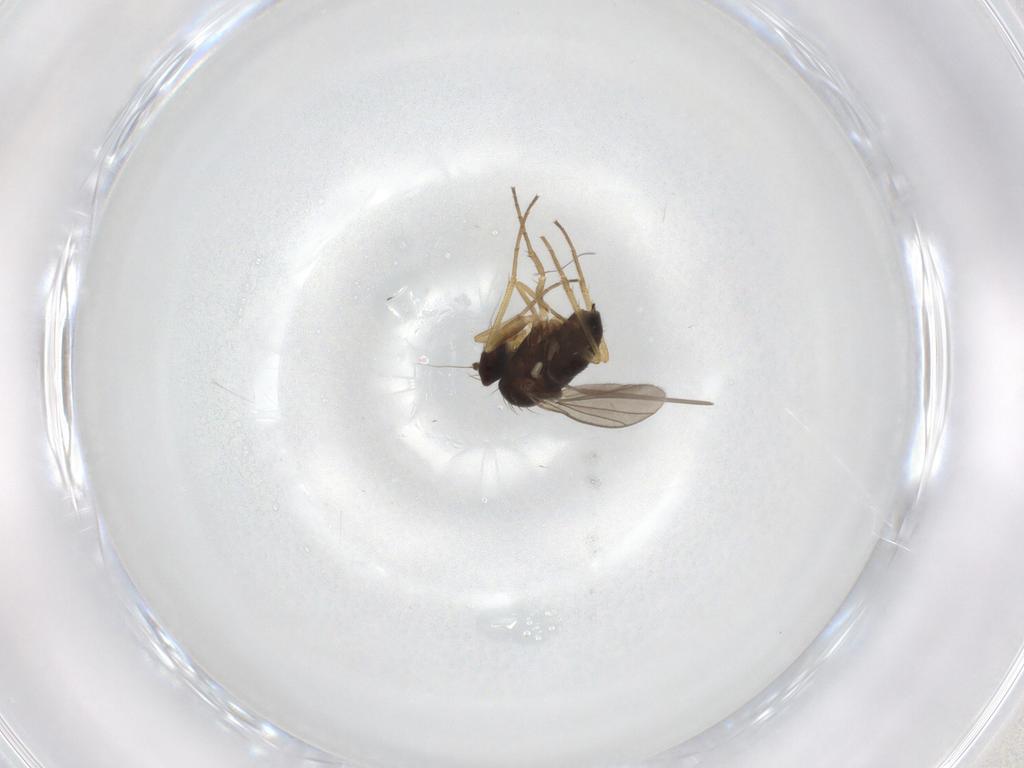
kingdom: Animalia
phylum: Arthropoda
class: Insecta
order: Diptera
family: Dolichopodidae
